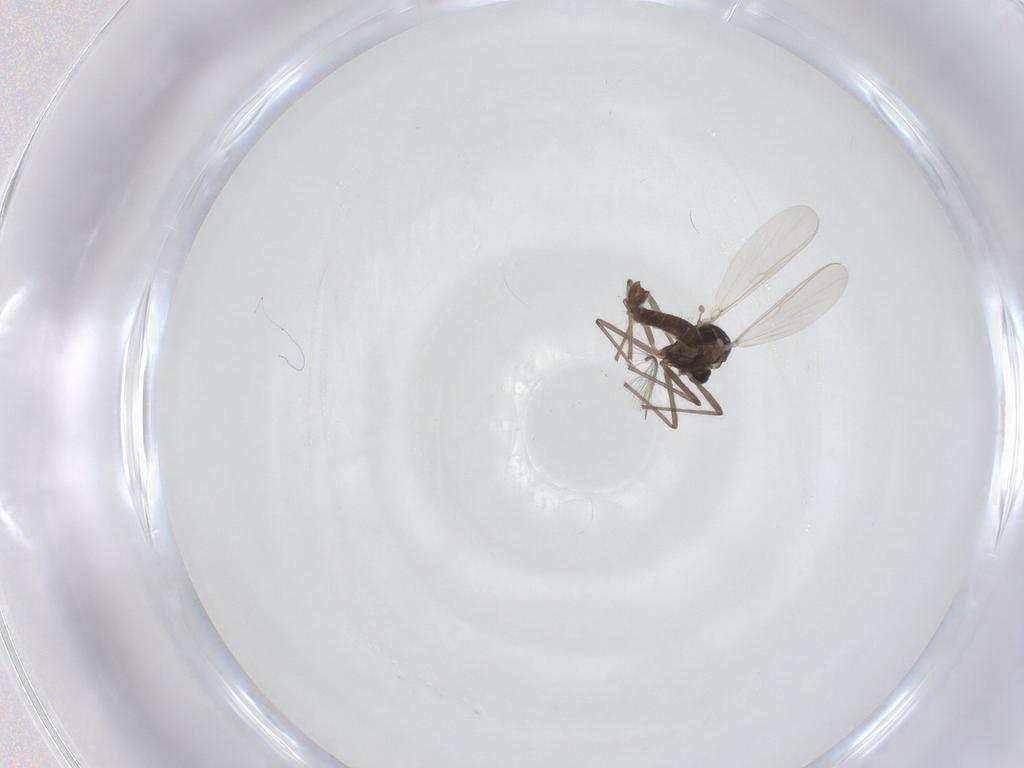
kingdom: Animalia
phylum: Arthropoda
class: Insecta
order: Diptera
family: Chironomidae
